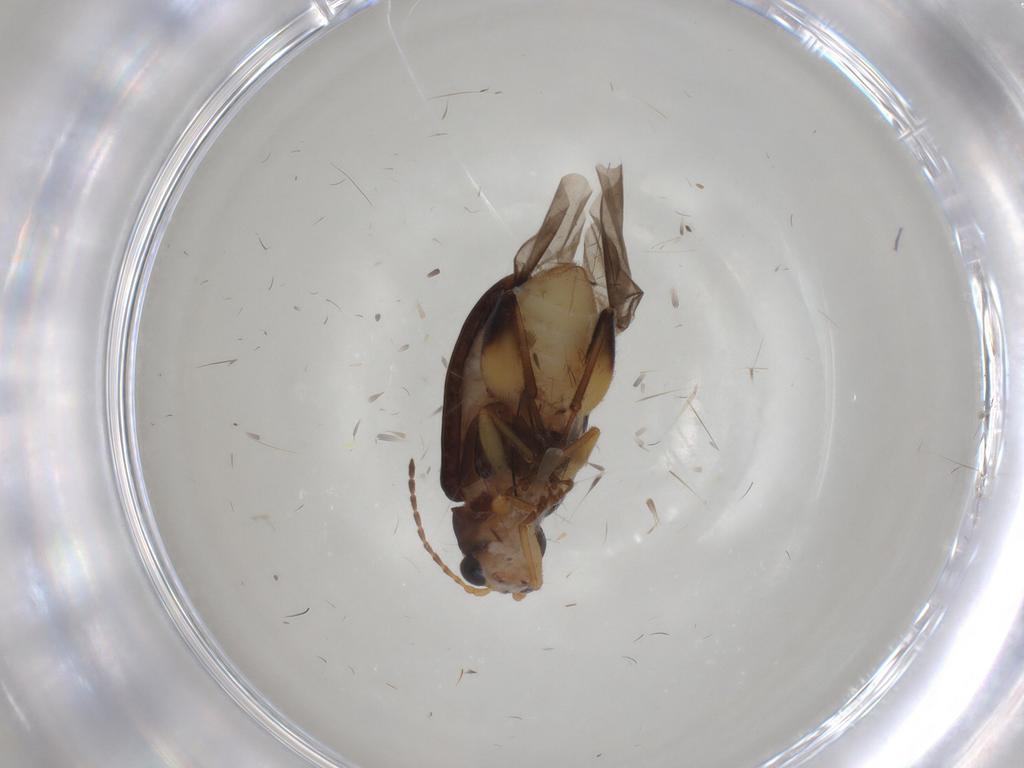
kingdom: Animalia
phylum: Arthropoda
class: Insecta
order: Coleoptera
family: Chrysomelidae
